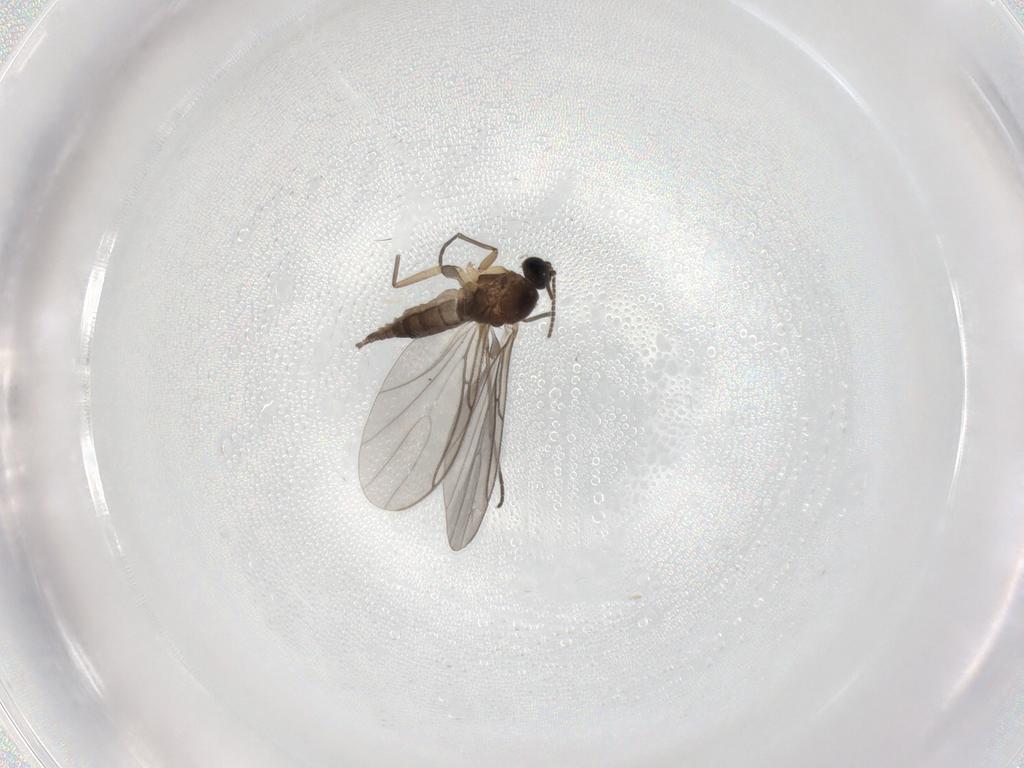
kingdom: Animalia
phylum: Arthropoda
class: Insecta
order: Diptera
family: Sciaridae
